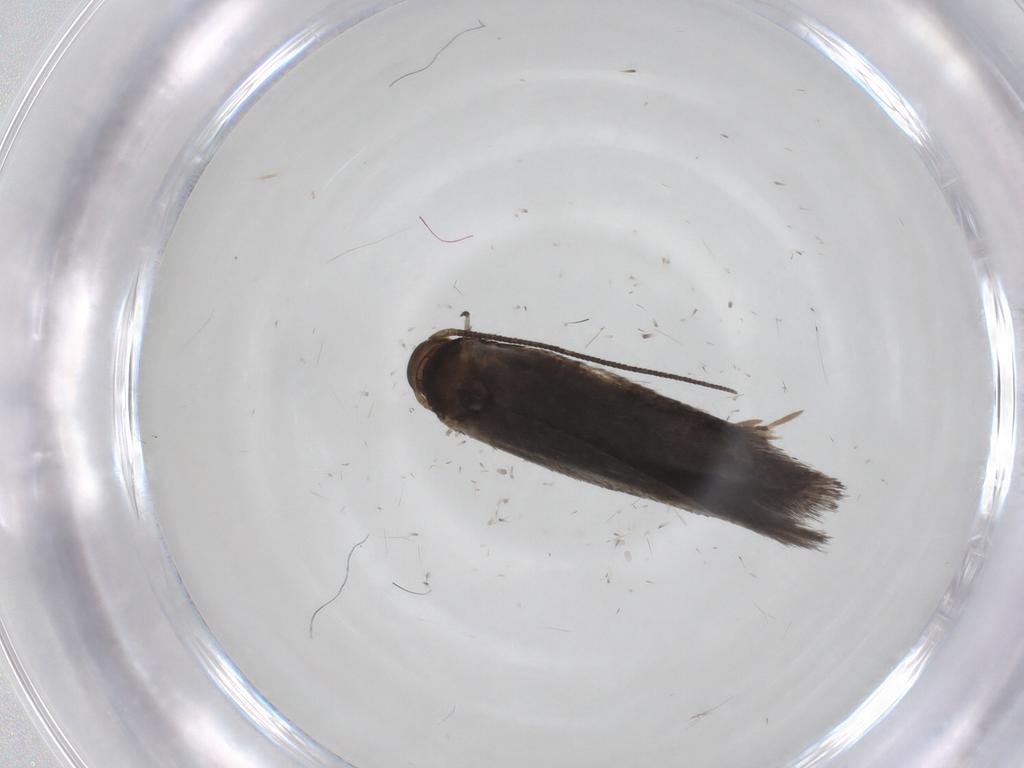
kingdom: Animalia
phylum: Arthropoda
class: Insecta
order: Lepidoptera
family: Elachistidae
